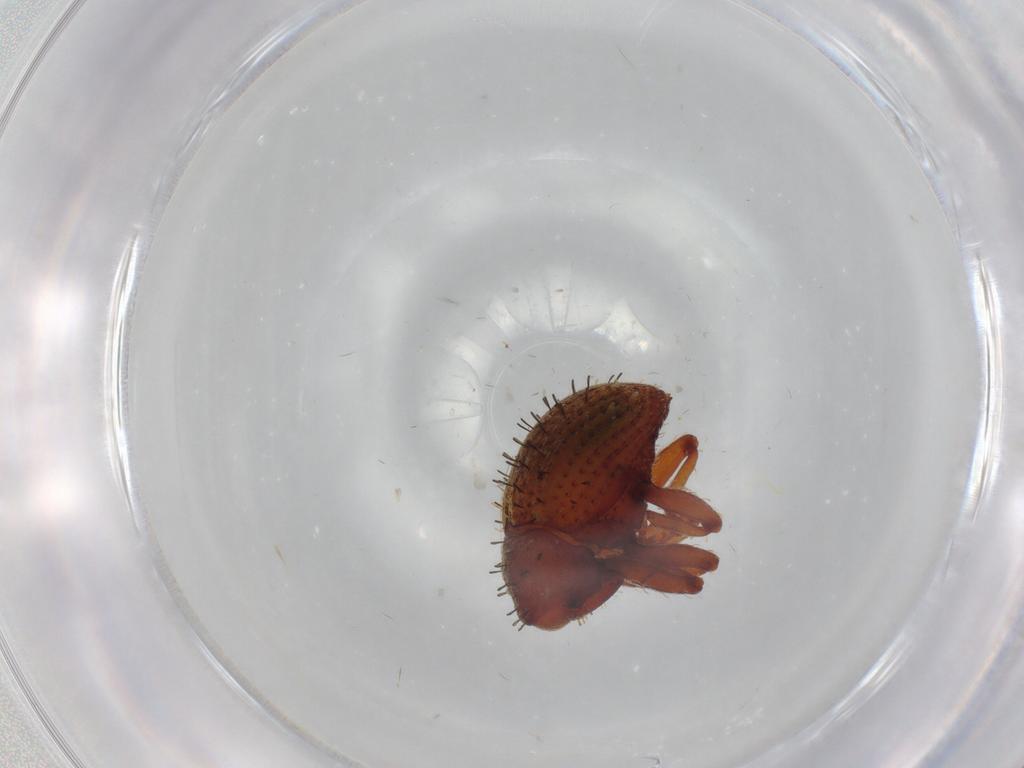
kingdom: Animalia
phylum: Arthropoda
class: Insecta
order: Coleoptera
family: Curculionidae
